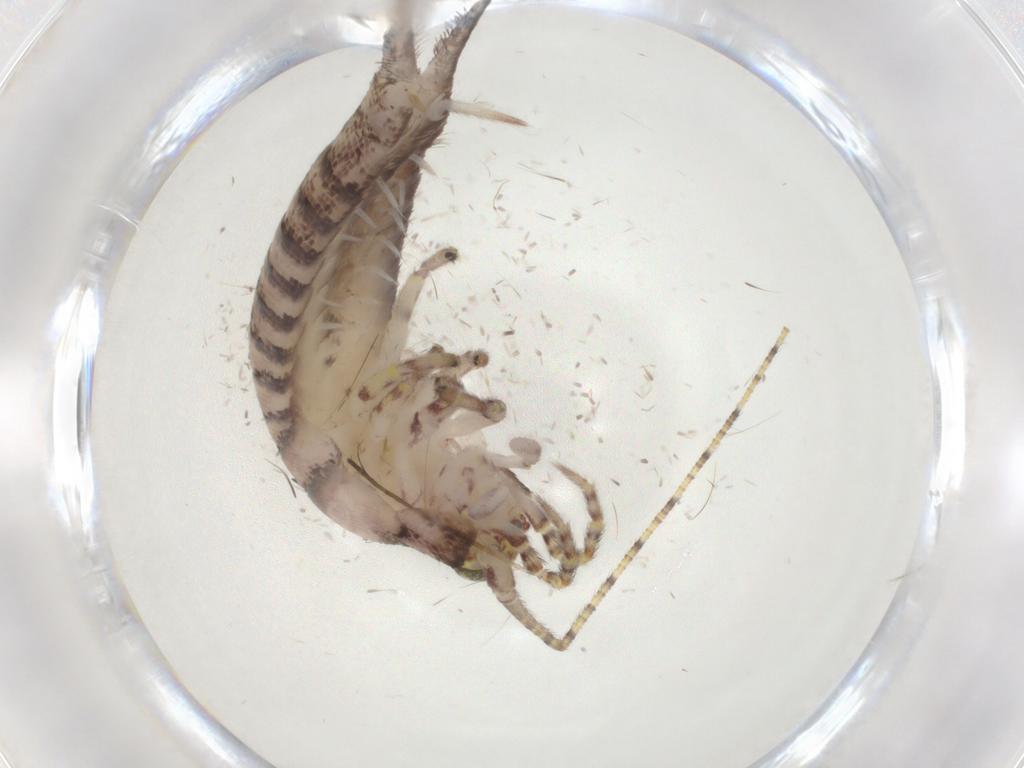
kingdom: Animalia
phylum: Arthropoda
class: Insecta
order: Archaeognatha
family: Machilidae
